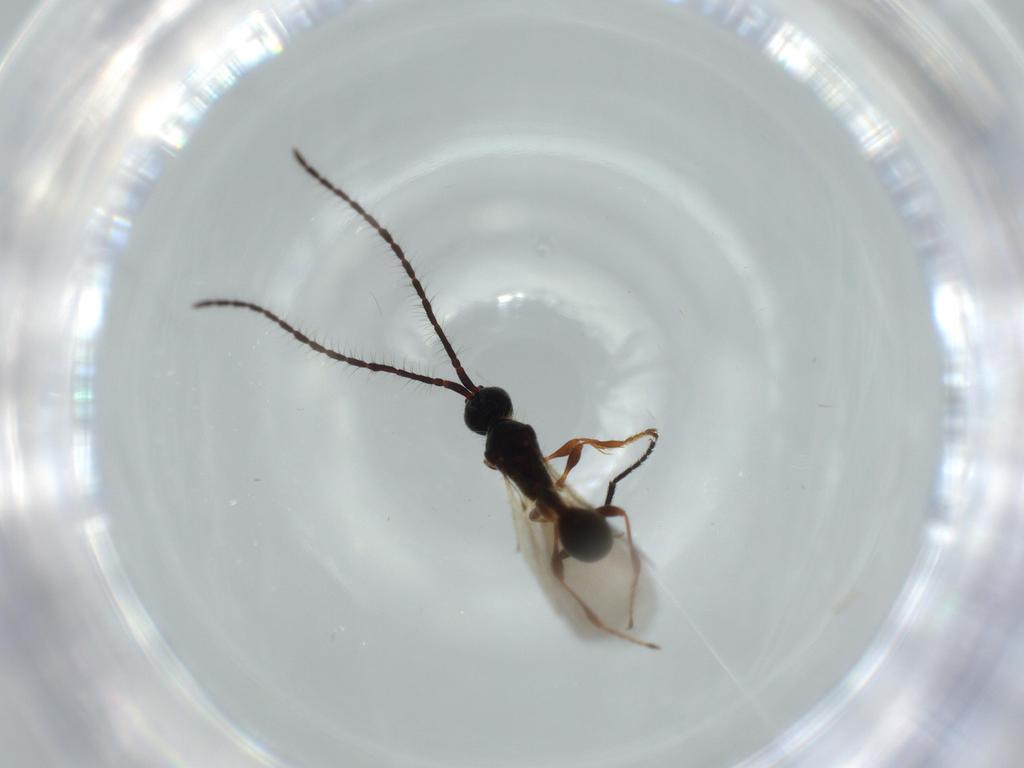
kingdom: Animalia
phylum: Arthropoda
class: Insecta
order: Hymenoptera
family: Diapriidae
